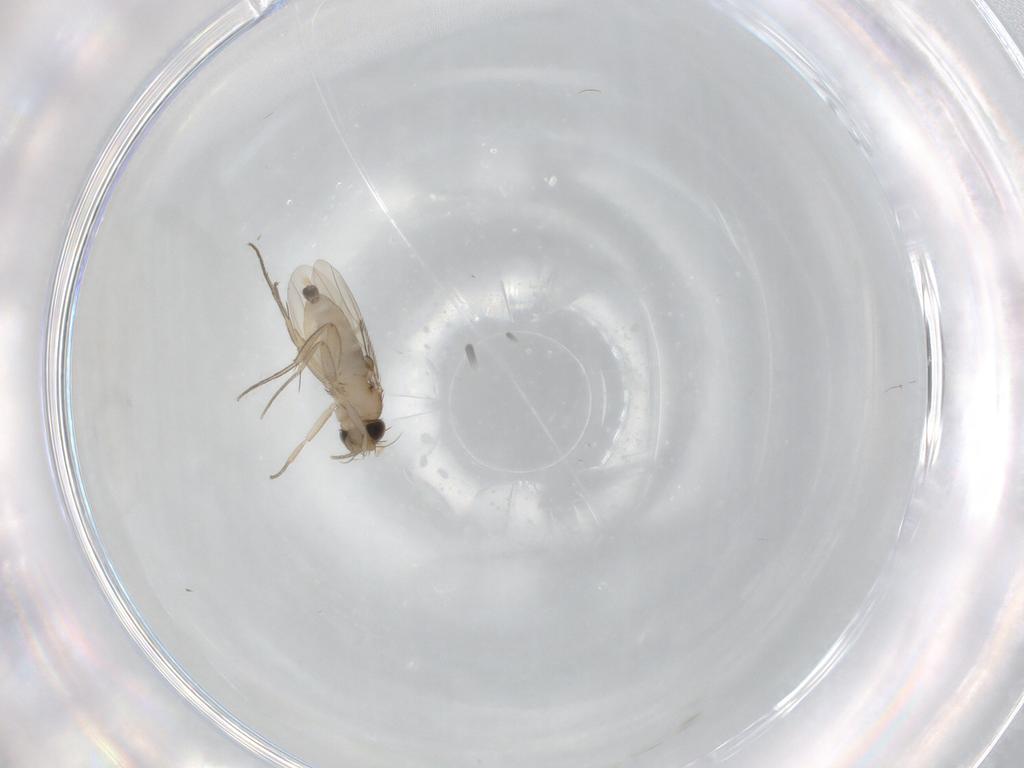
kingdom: Animalia
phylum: Arthropoda
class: Insecta
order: Diptera
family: Phoridae
